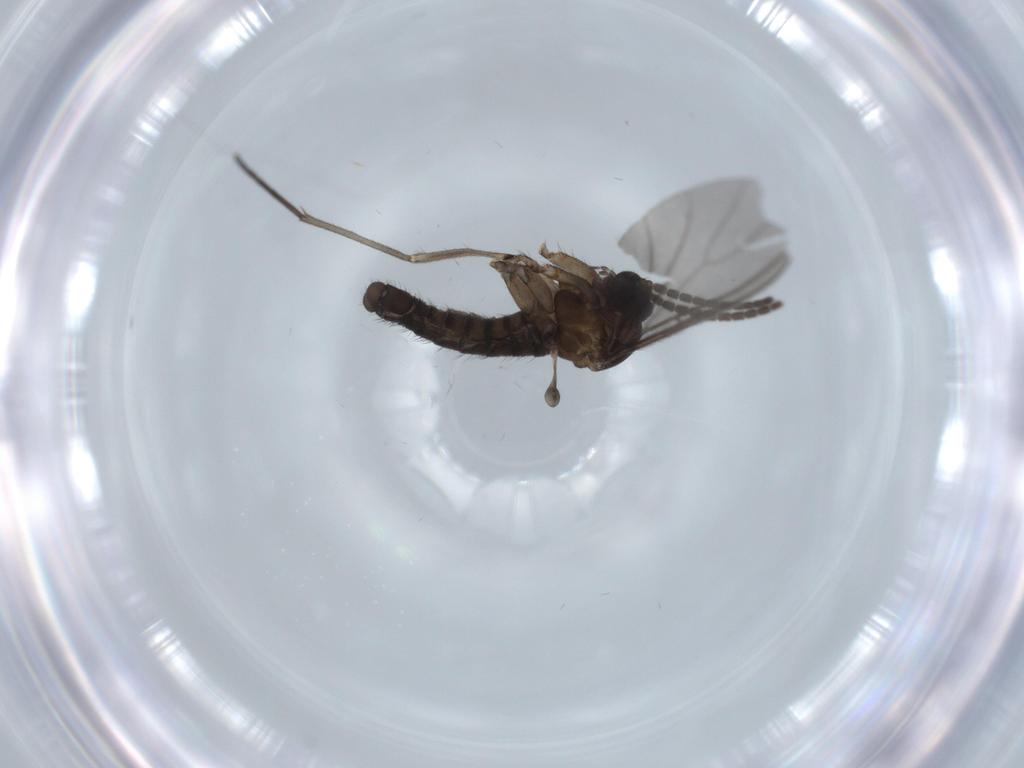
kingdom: Animalia
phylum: Arthropoda
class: Insecta
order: Diptera
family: Sciaridae
